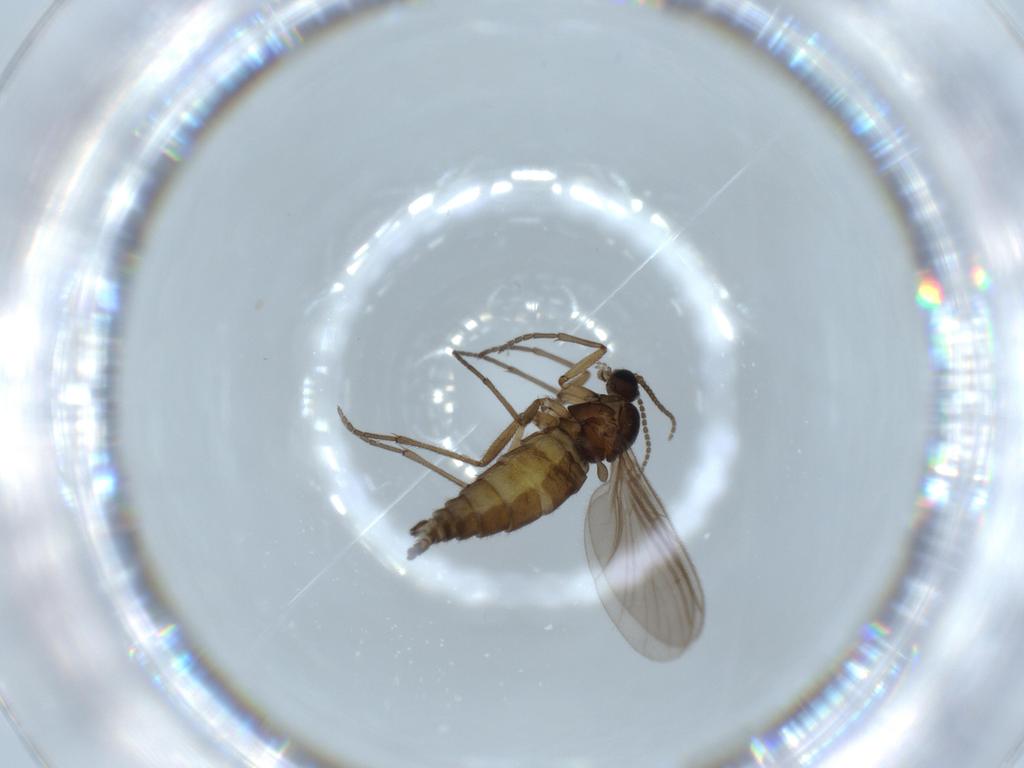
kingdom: Animalia
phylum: Arthropoda
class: Insecta
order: Diptera
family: Sciaridae
